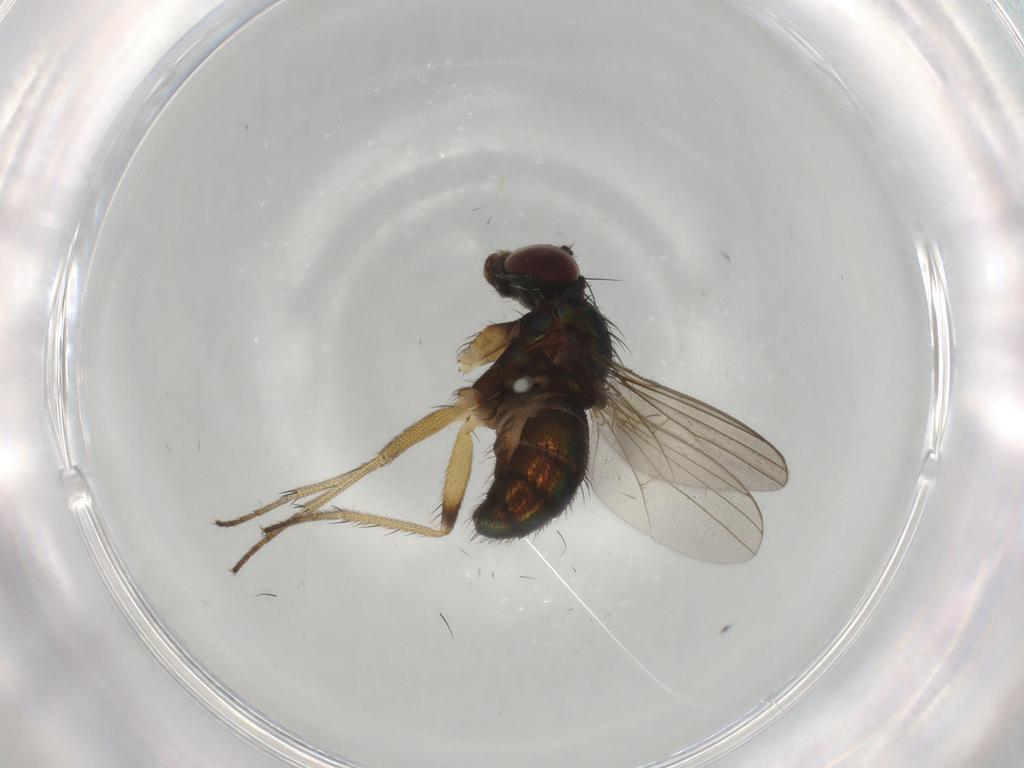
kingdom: Animalia
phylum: Arthropoda
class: Insecta
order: Diptera
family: Dolichopodidae
